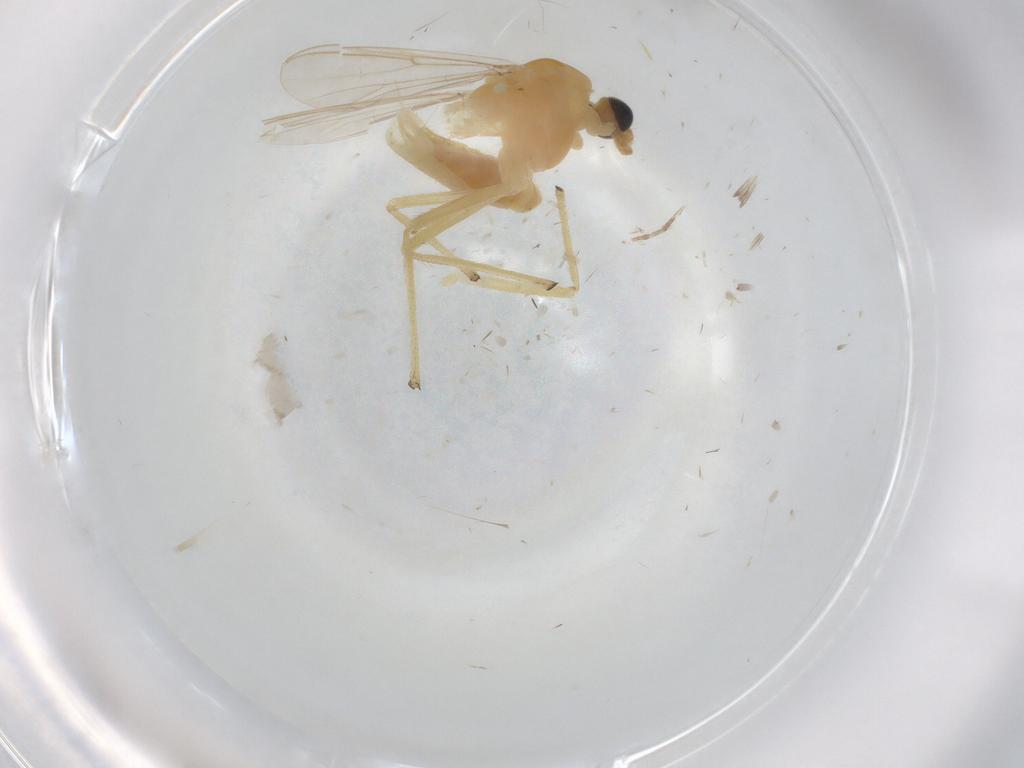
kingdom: Animalia
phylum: Arthropoda
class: Insecta
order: Diptera
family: Chironomidae
